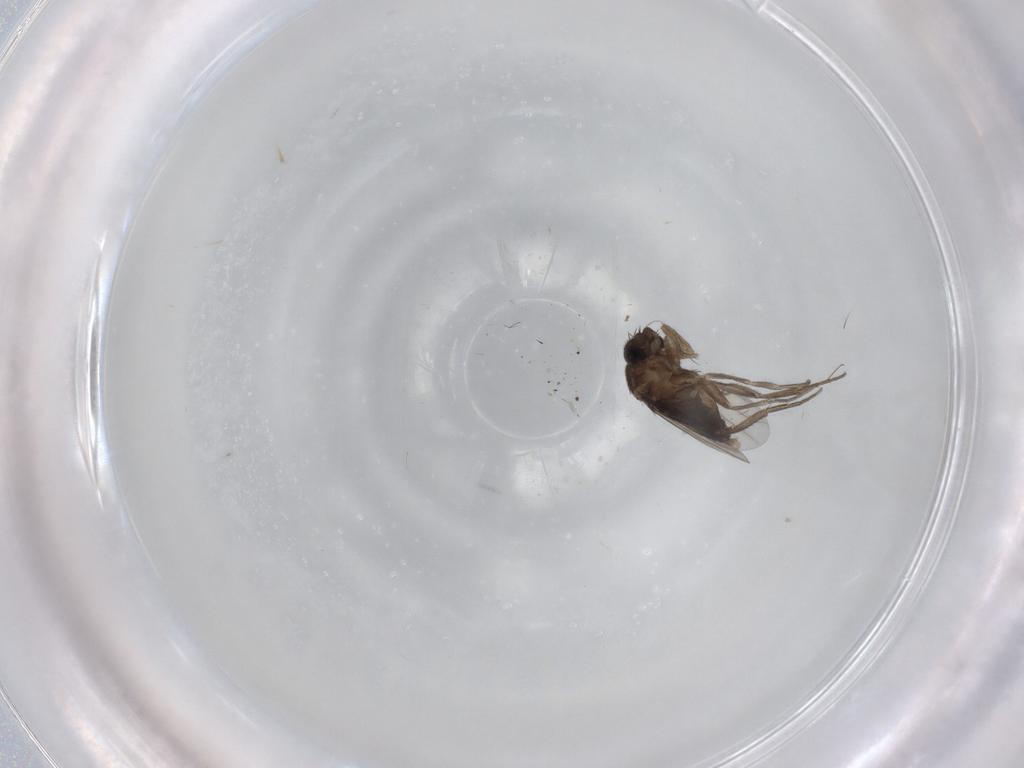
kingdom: Animalia
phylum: Arthropoda
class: Insecta
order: Diptera
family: Phoridae
